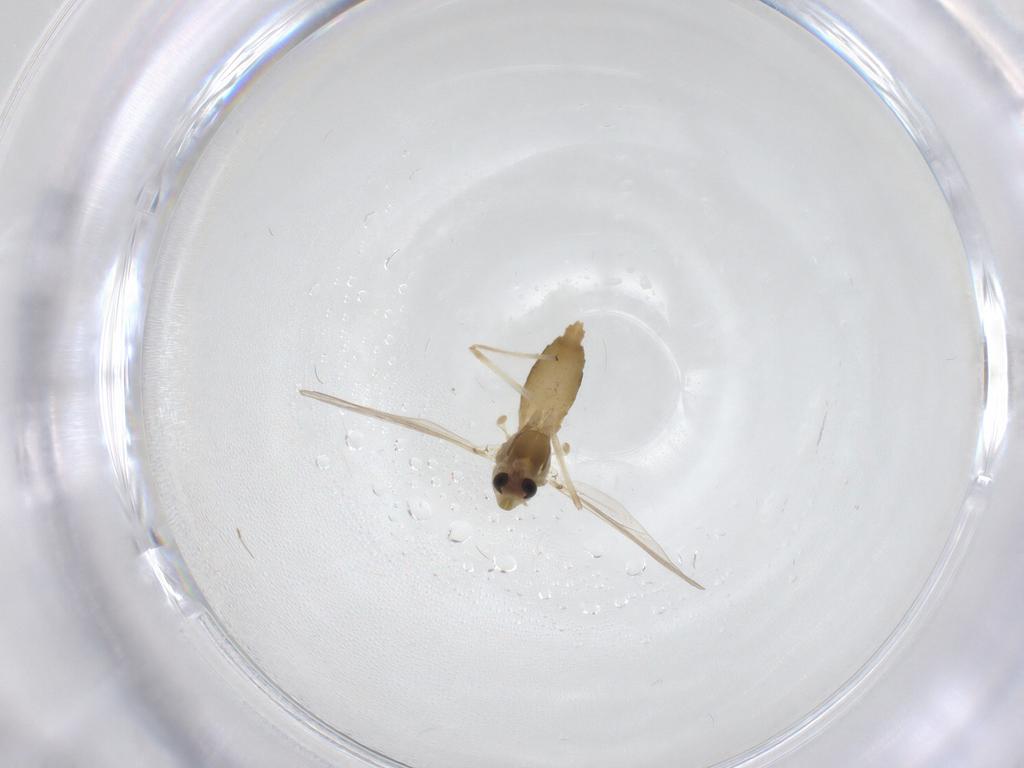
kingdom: Animalia
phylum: Arthropoda
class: Insecta
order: Diptera
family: Chironomidae
